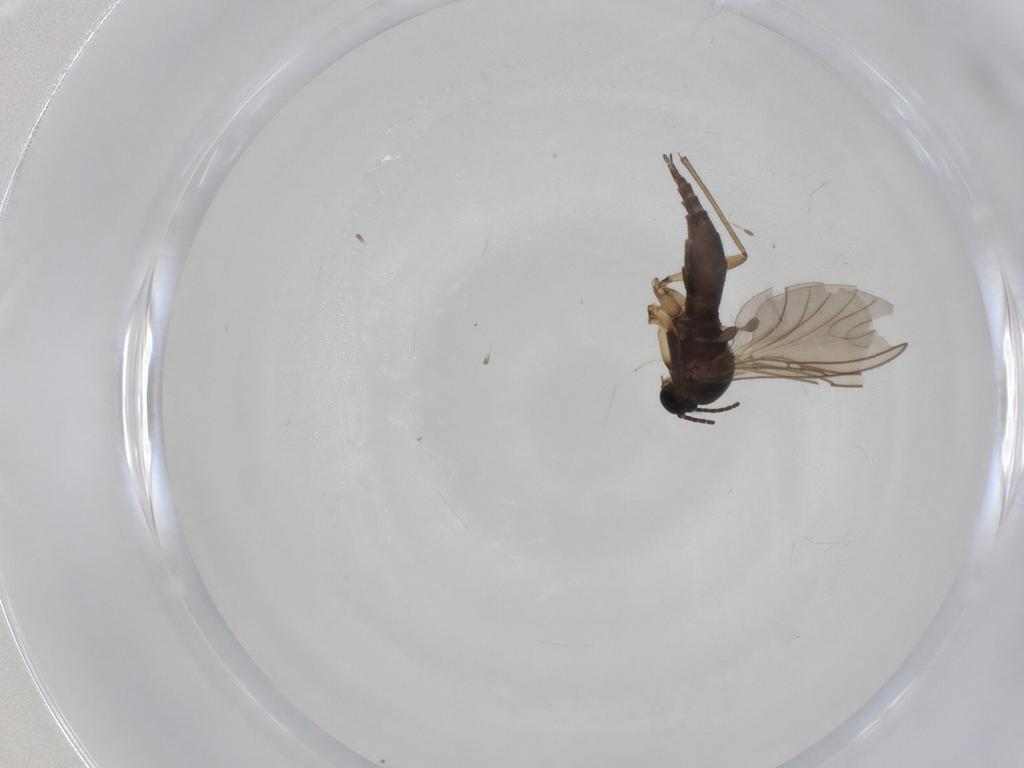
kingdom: Animalia
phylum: Arthropoda
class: Insecta
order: Diptera
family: Sciaridae
